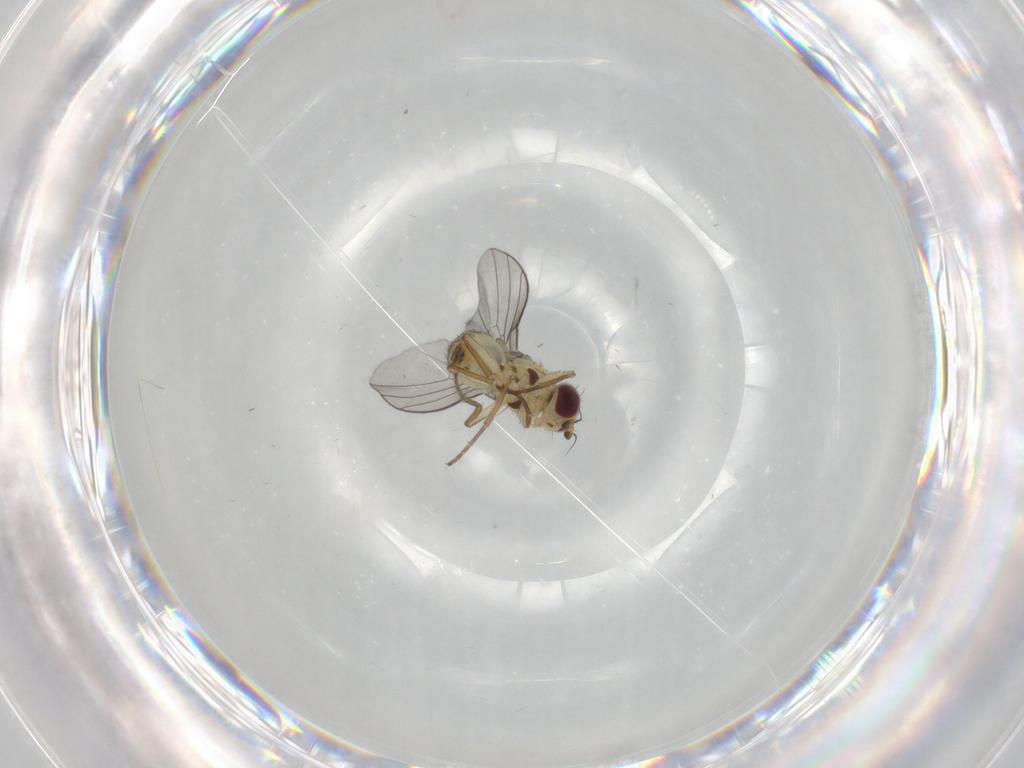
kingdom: Animalia
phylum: Arthropoda
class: Insecta
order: Diptera
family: Agromyzidae
